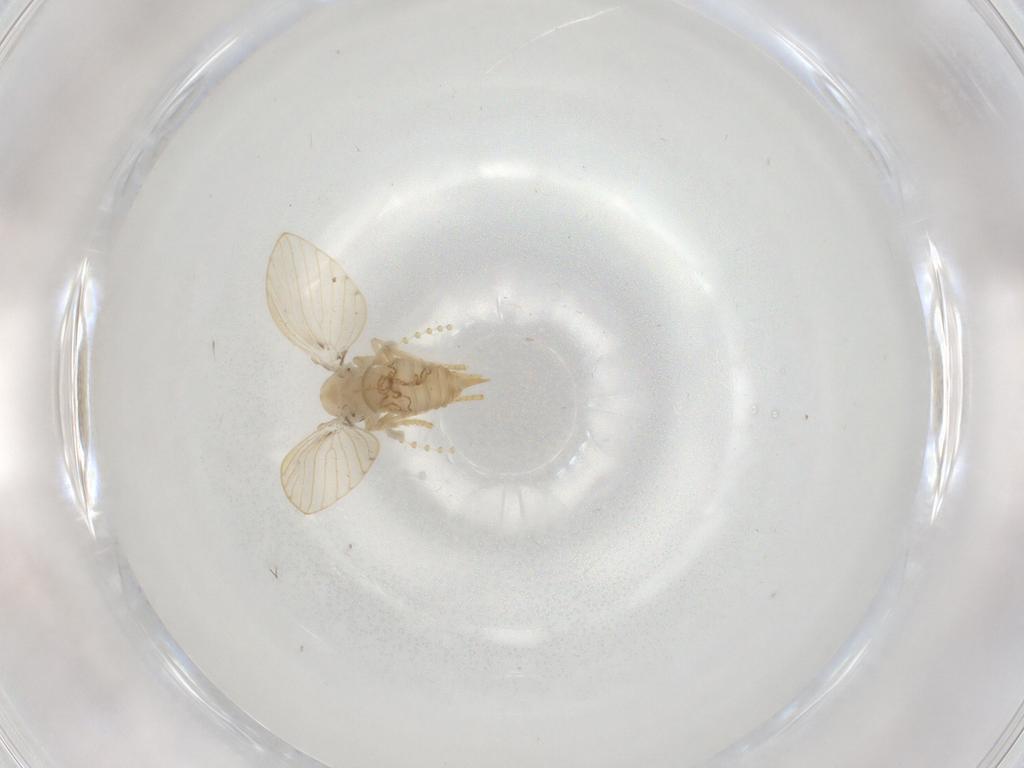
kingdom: Animalia
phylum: Arthropoda
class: Insecta
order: Diptera
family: Psychodidae
